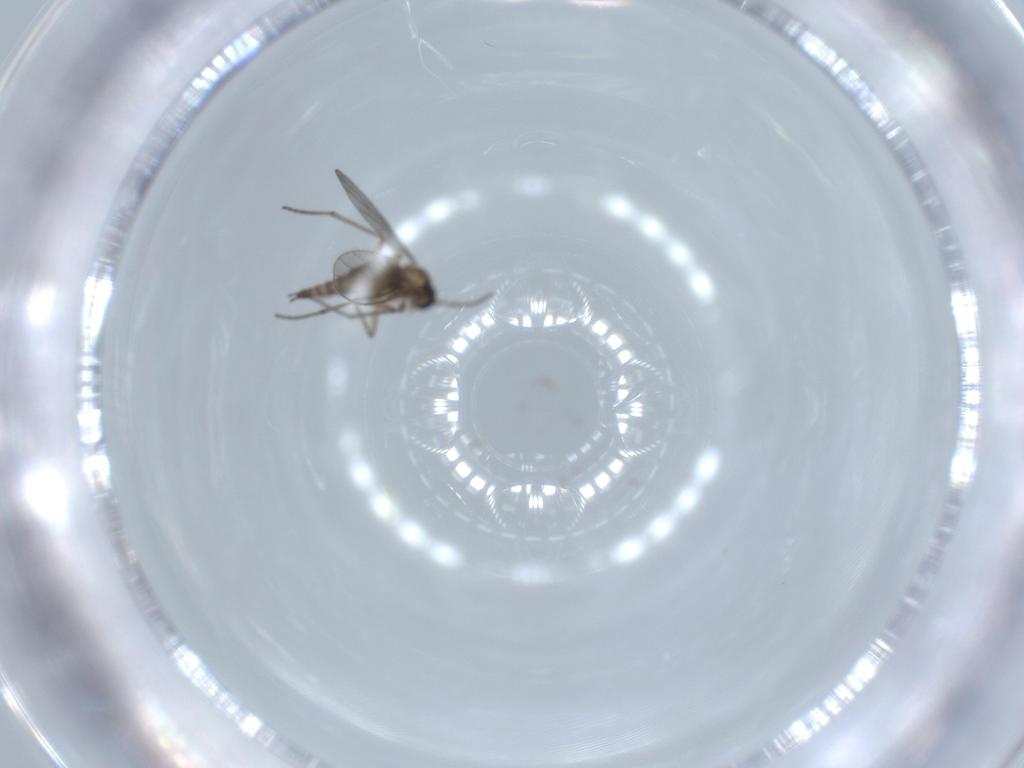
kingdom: Animalia
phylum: Arthropoda
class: Insecta
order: Diptera
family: Sciaridae
